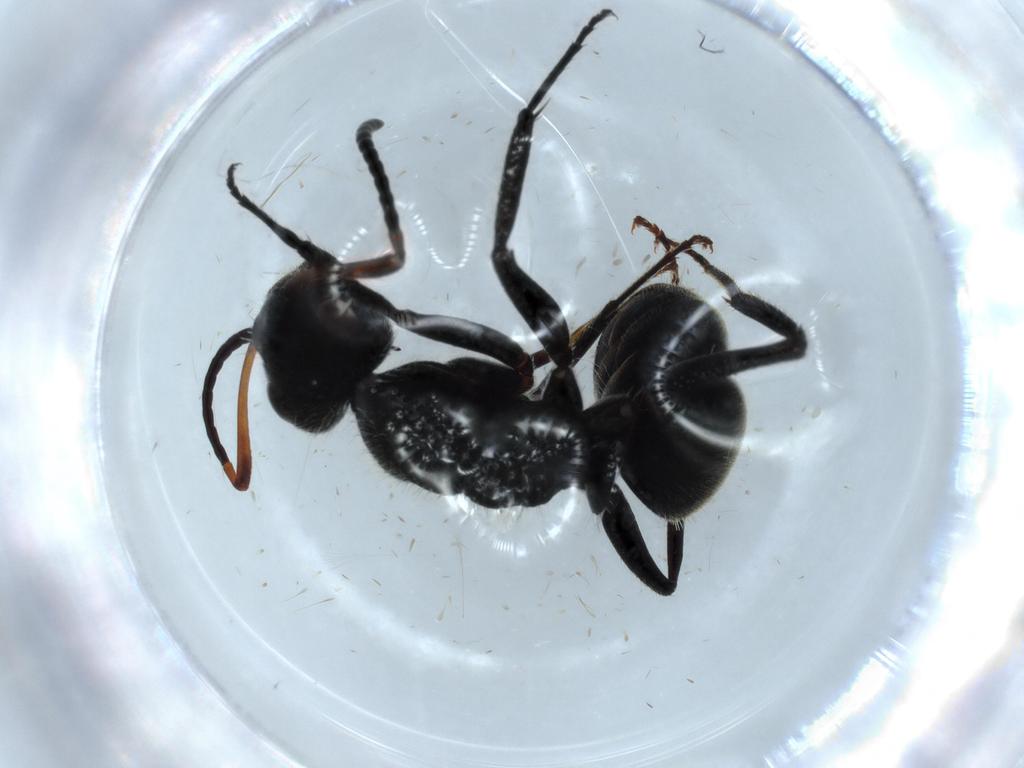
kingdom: Animalia
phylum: Arthropoda
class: Insecta
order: Hymenoptera
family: Formicidae
